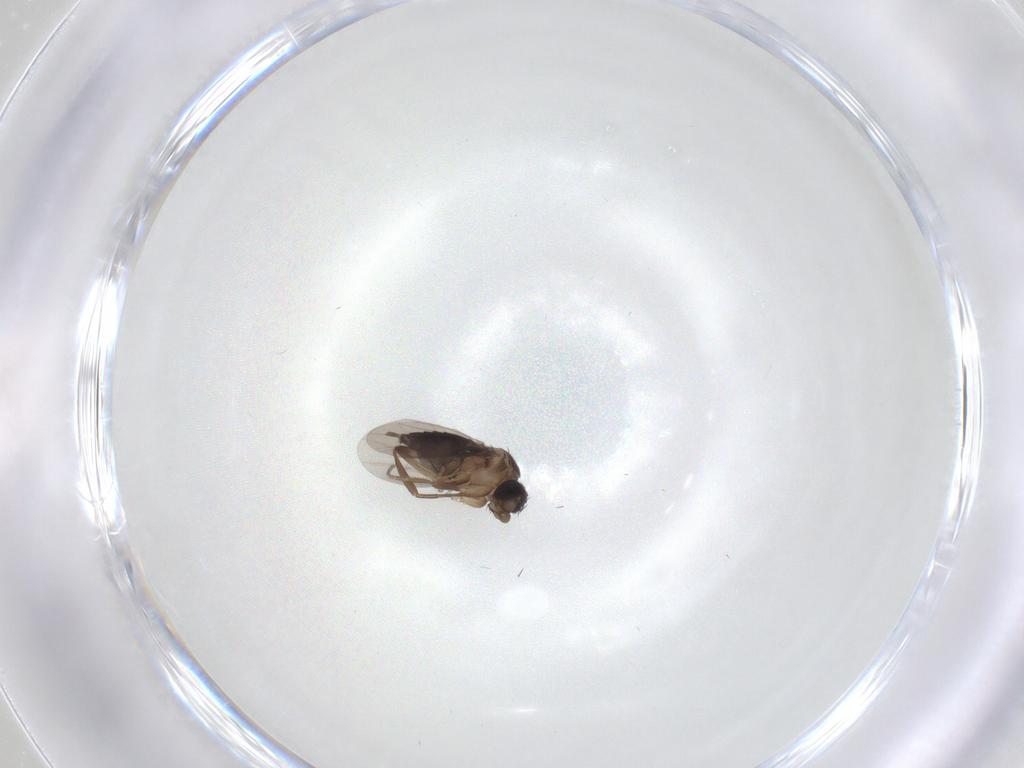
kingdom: Animalia
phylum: Arthropoda
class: Insecta
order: Diptera
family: Phoridae
